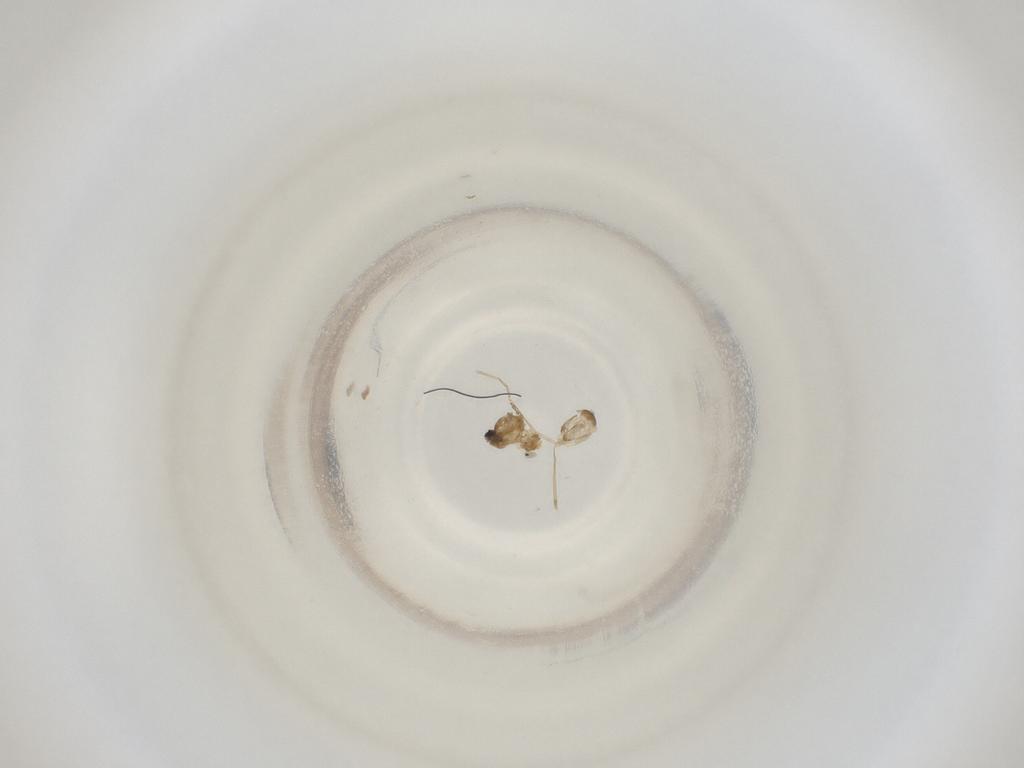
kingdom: Animalia
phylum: Arthropoda
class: Insecta
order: Diptera
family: Cecidomyiidae
